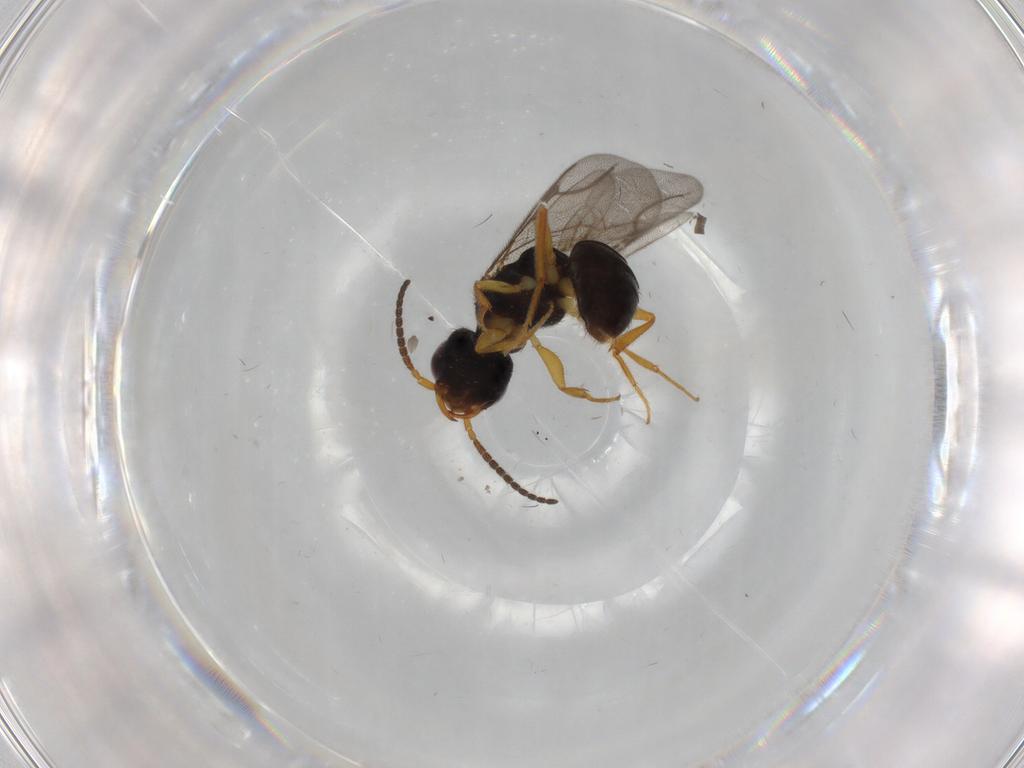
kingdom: Animalia
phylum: Arthropoda
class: Insecta
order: Hymenoptera
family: Bethylidae
